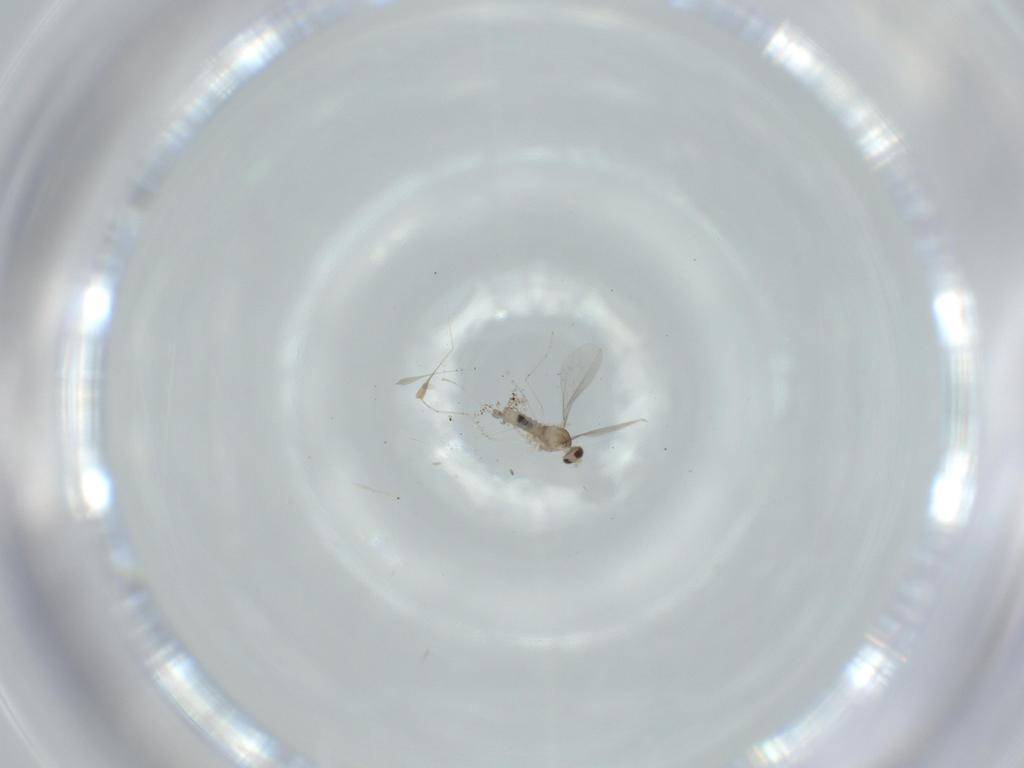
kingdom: Animalia
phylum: Arthropoda
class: Insecta
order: Diptera
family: Cecidomyiidae
